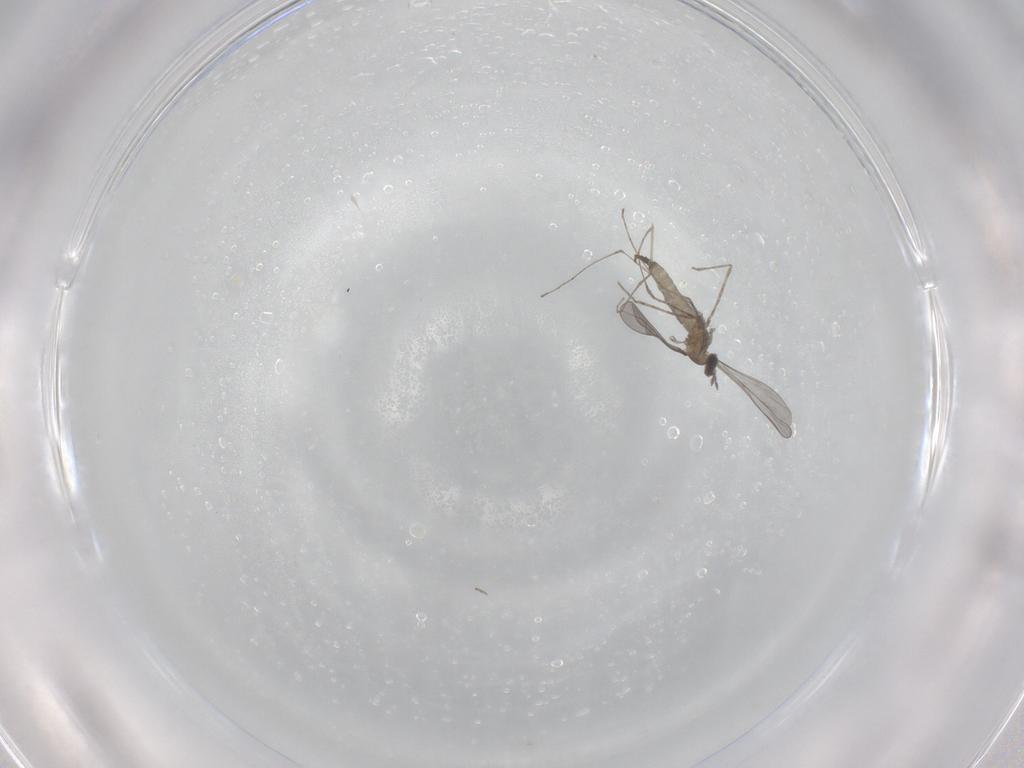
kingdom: Animalia
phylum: Arthropoda
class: Insecta
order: Diptera
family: Cecidomyiidae
